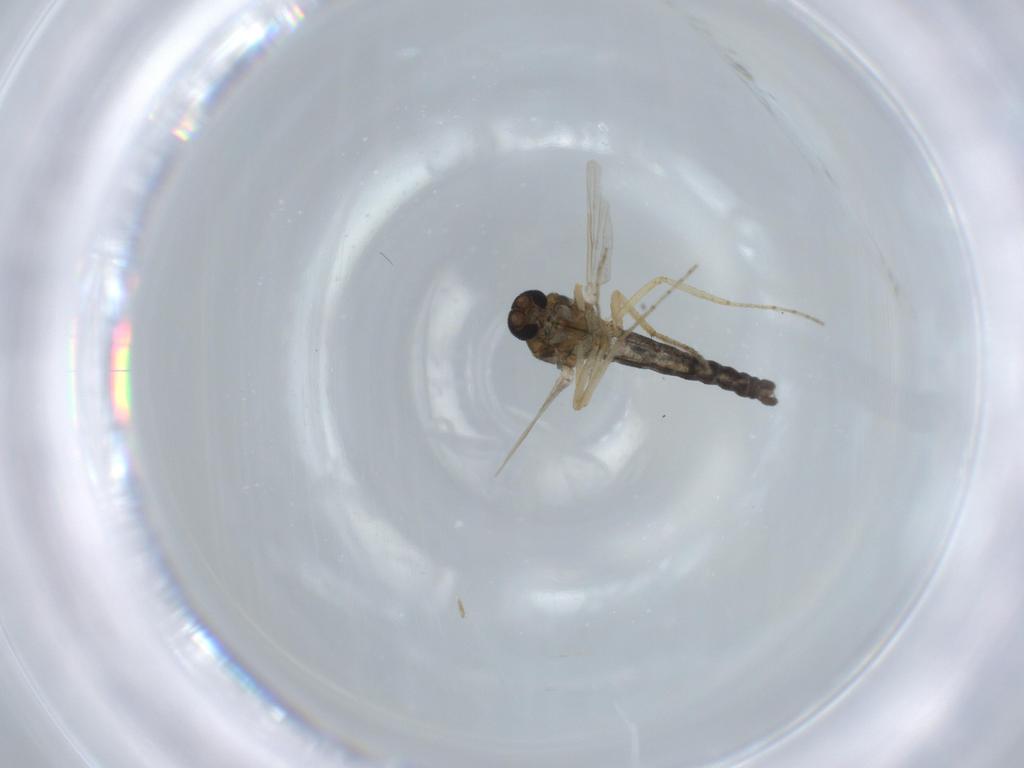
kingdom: Animalia
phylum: Arthropoda
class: Insecta
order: Diptera
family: Ceratopogonidae
